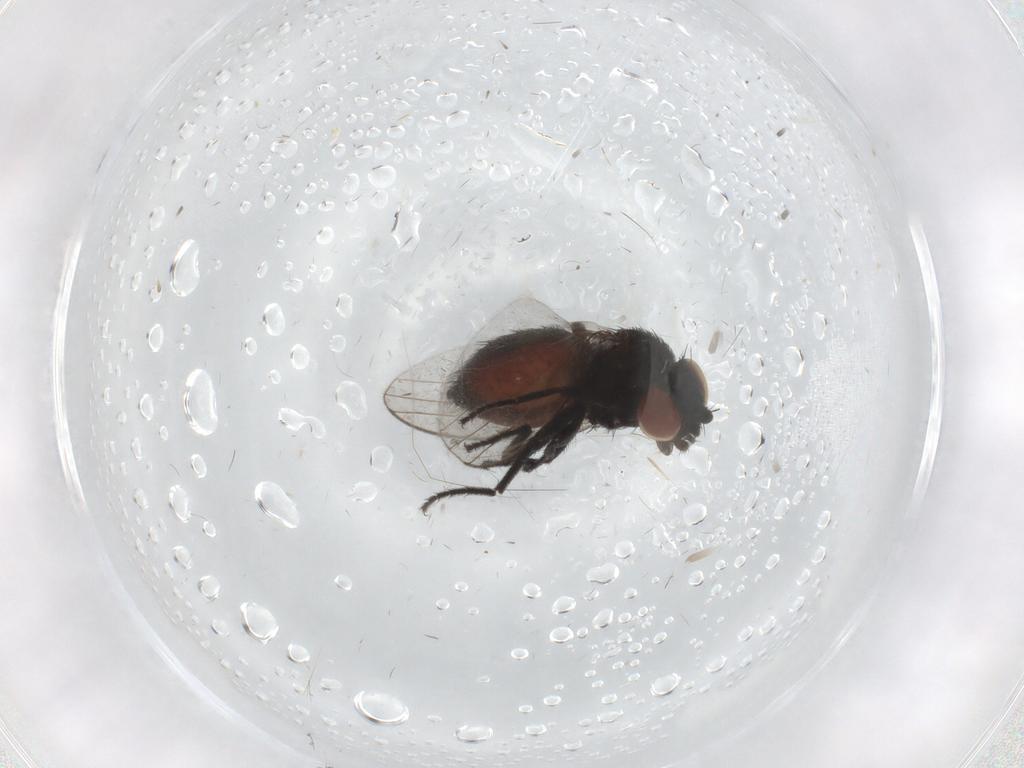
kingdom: Animalia
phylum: Arthropoda
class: Insecta
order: Diptera
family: Milichiidae
